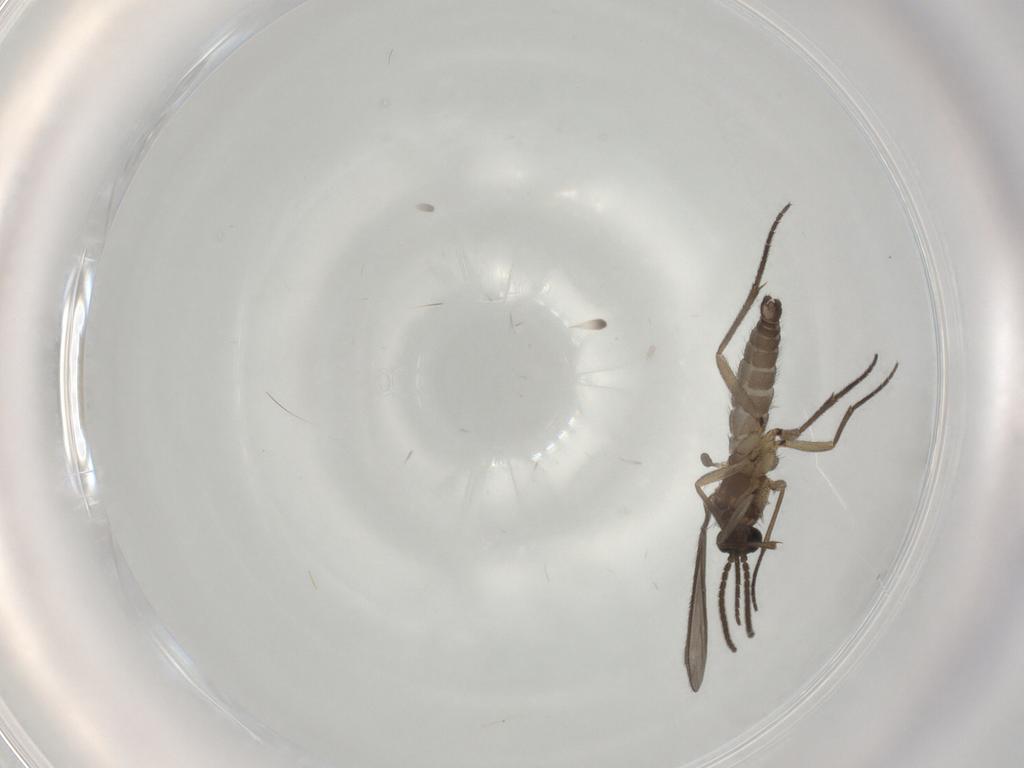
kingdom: Animalia
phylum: Arthropoda
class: Insecta
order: Diptera
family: Sciaridae
